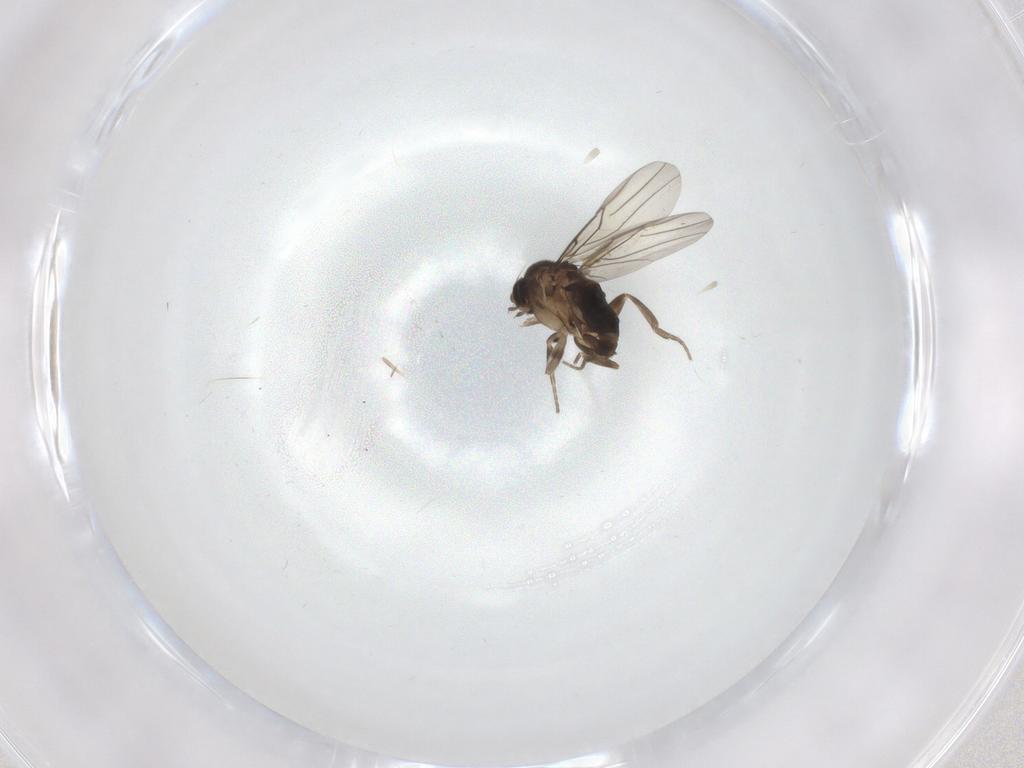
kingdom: Animalia
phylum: Arthropoda
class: Insecta
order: Diptera
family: Phoridae
